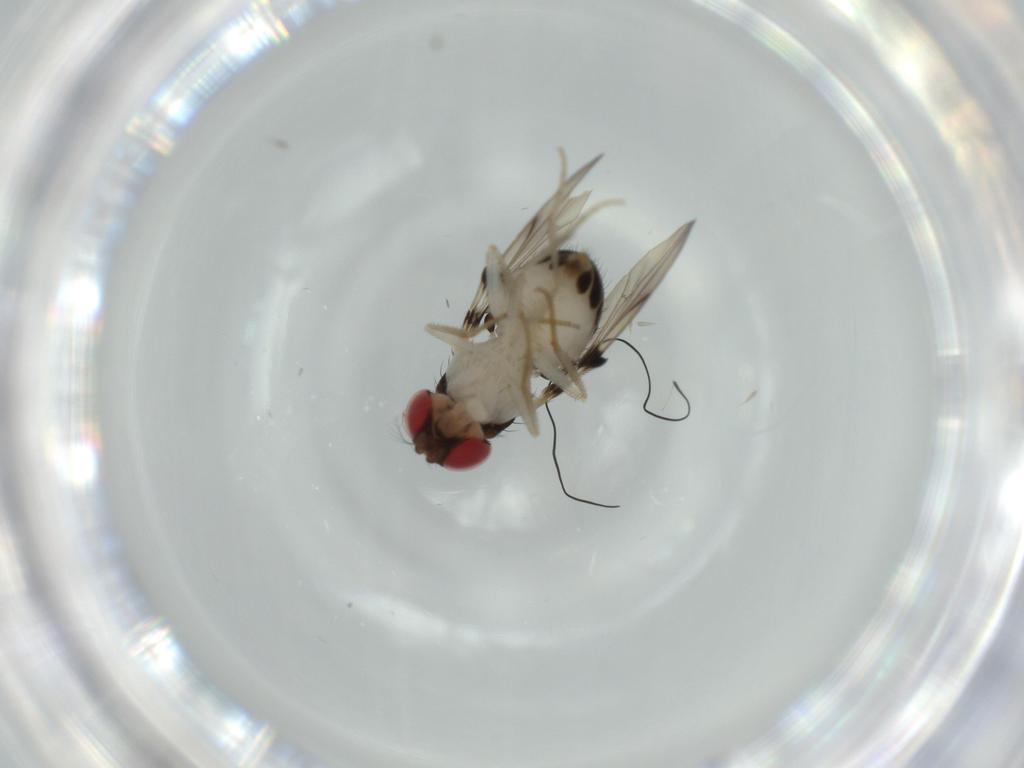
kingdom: Animalia
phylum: Arthropoda
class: Insecta
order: Diptera
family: Drosophilidae
